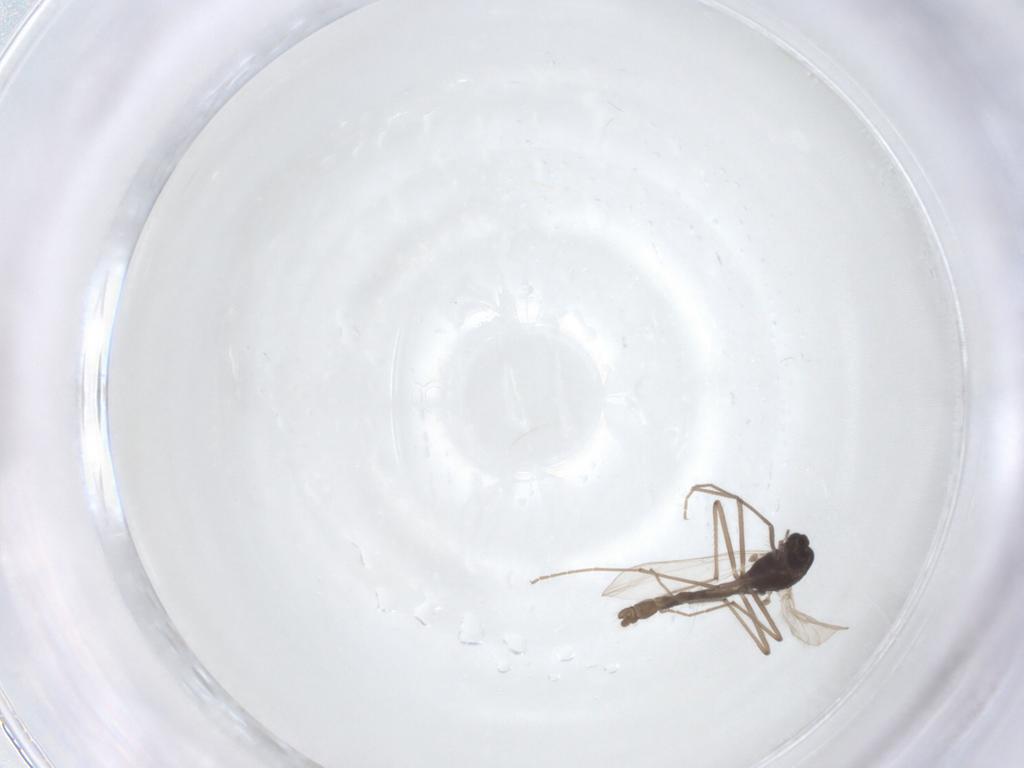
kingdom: Animalia
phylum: Arthropoda
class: Insecta
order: Diptera
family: Chironomidae
